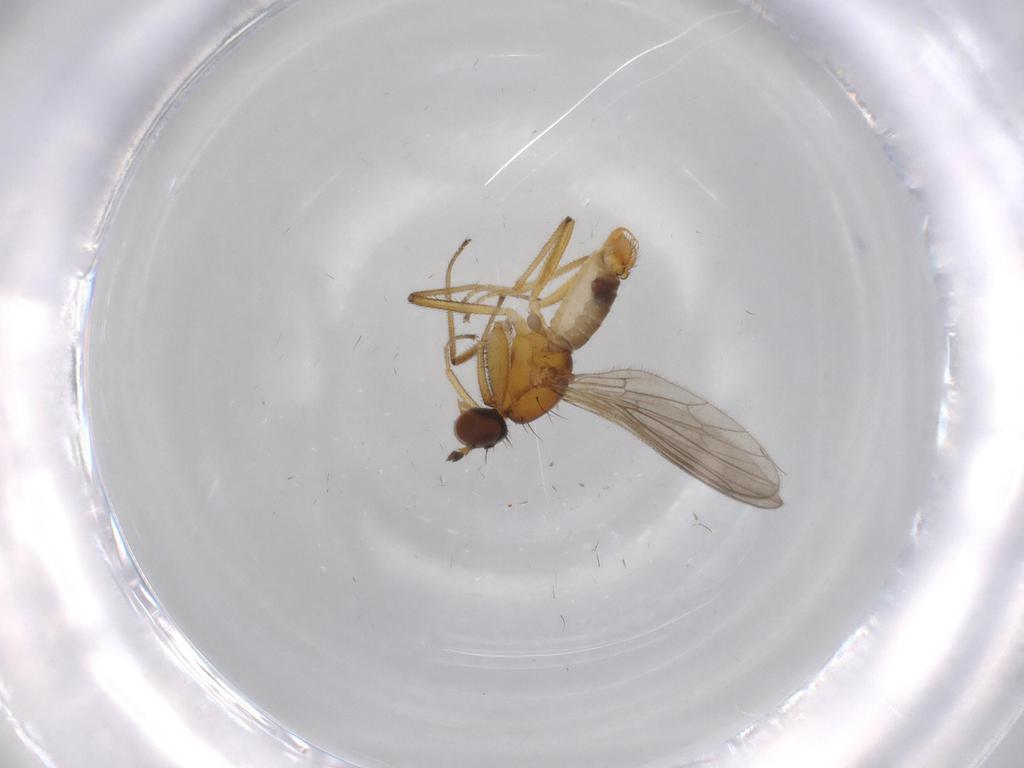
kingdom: Animalia
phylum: Arthropoda
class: Insecta
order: Diptera
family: Empididae
